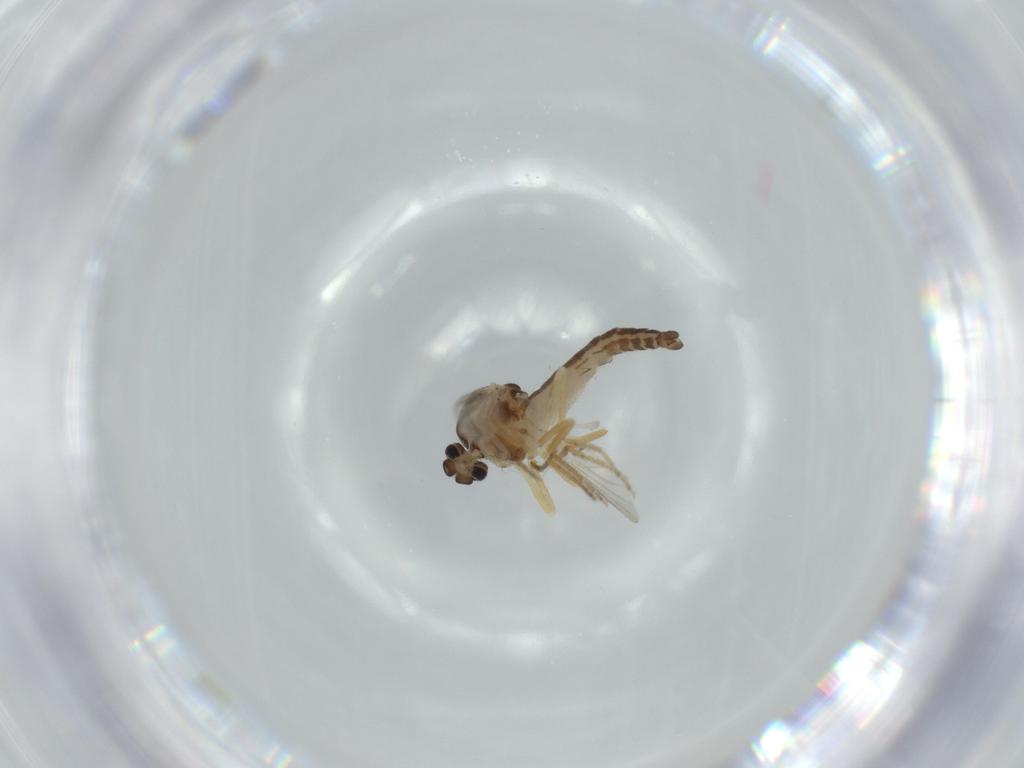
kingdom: Animalia
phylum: Arthropoda
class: Insecta
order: Diptera
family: Ceratopogonidae
